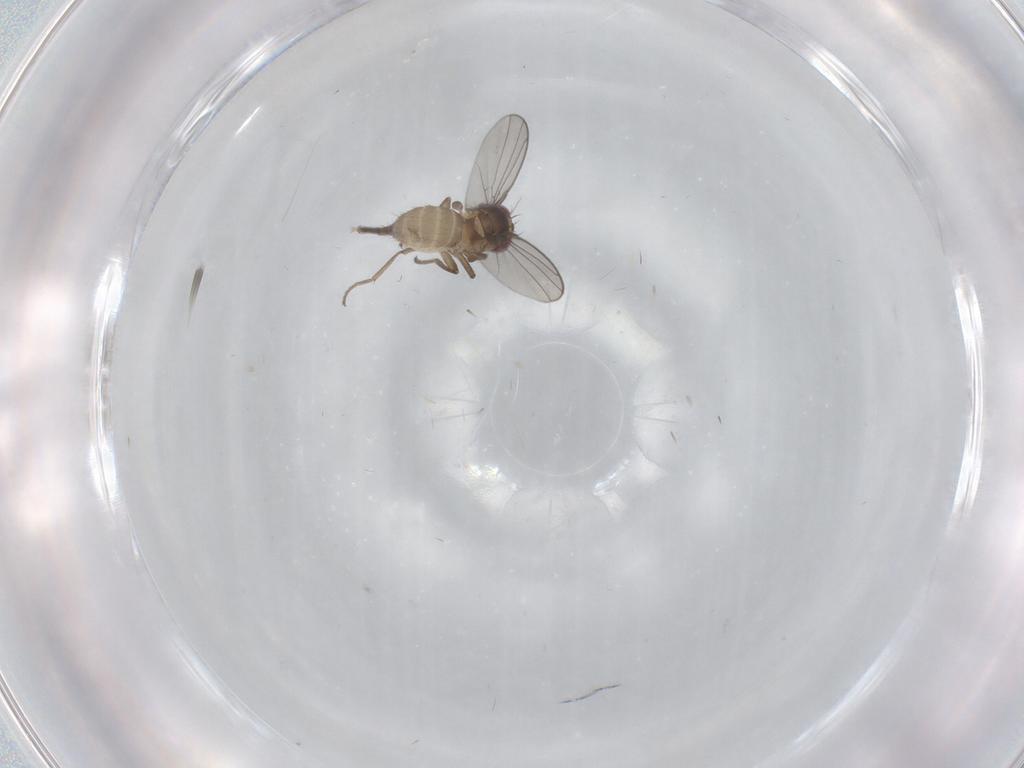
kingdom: Animalia
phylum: Arthropoda
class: Insecta
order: Diptera
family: Agromyzidae
